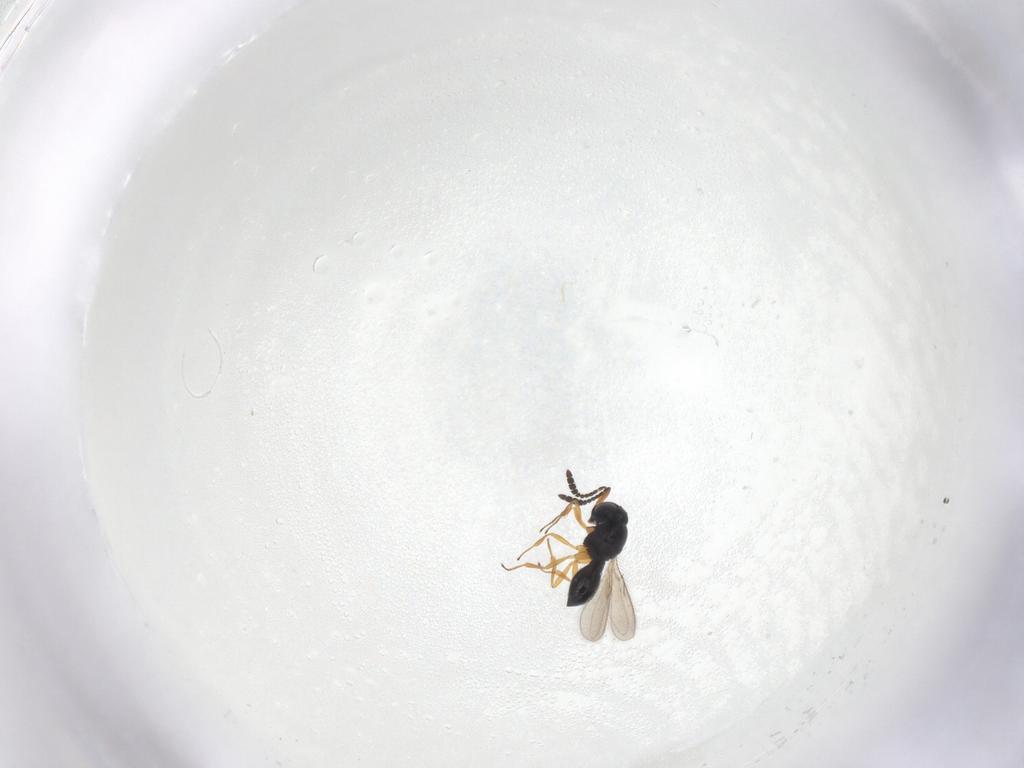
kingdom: Animalia
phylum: Arthropoda
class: Insecta
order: Hymenoptera
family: Scelionidae
